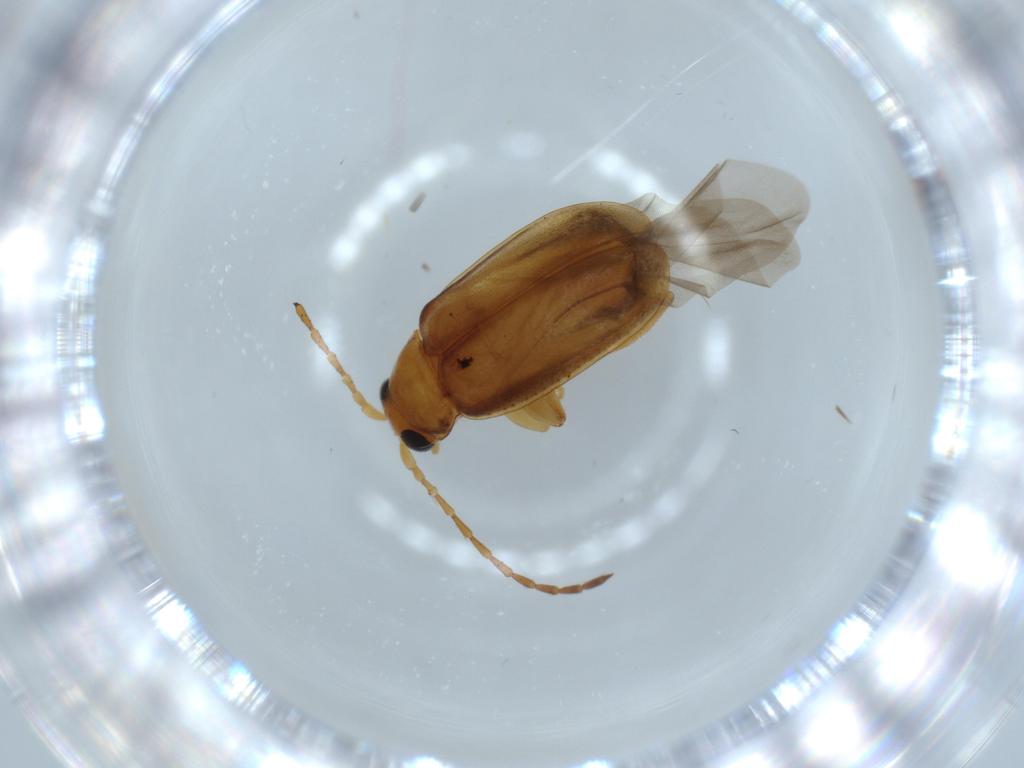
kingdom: Animalia
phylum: Arthropoda
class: Insecta
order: Coleoptera
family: Chrysomelidae
